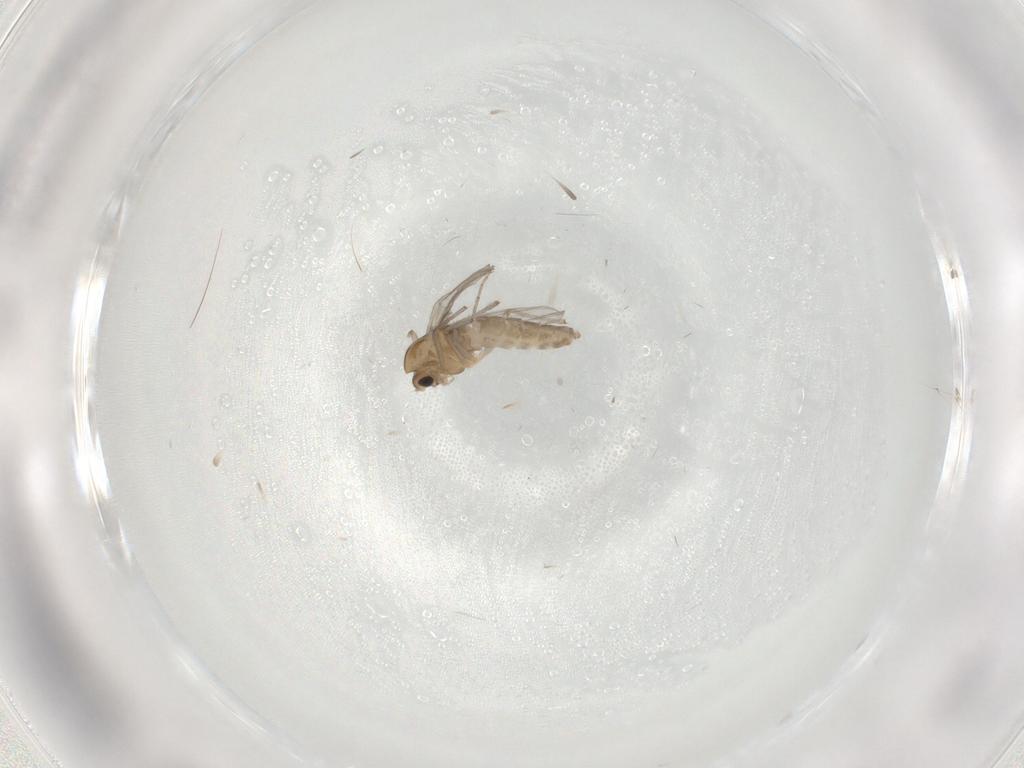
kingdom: Animalia
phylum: Arthropoda
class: Insecta
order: Diptera
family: Chironomidae
